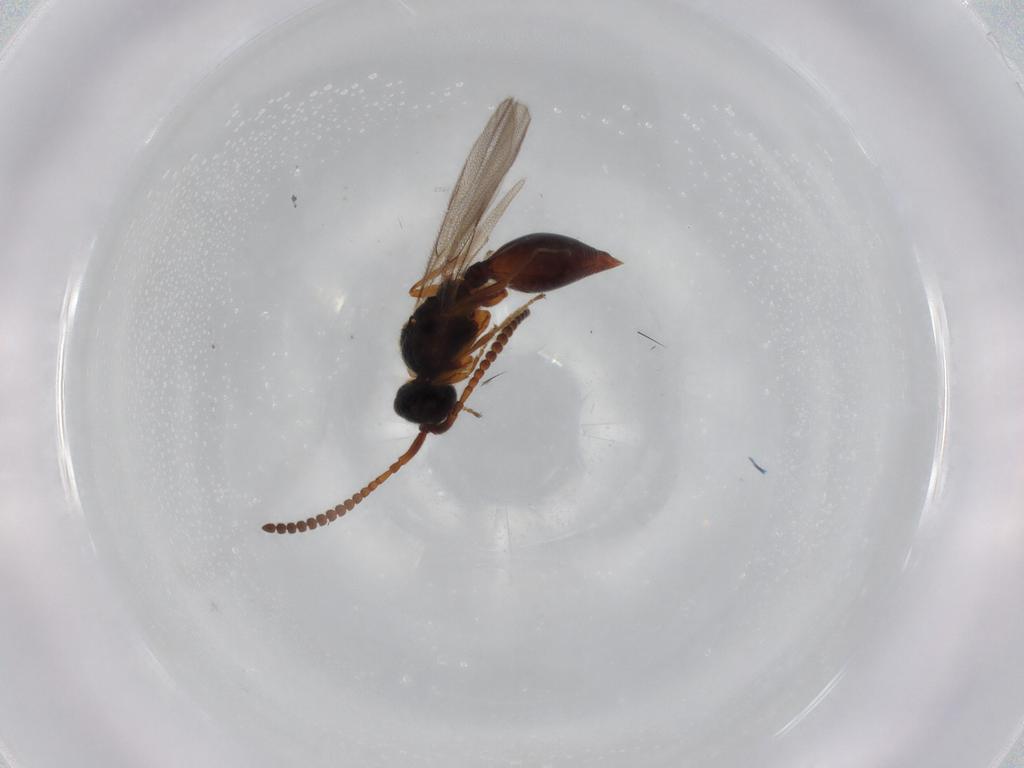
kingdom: Animalia
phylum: Arthropoda
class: Insecta
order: Hymenoptera
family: Scelionidae
